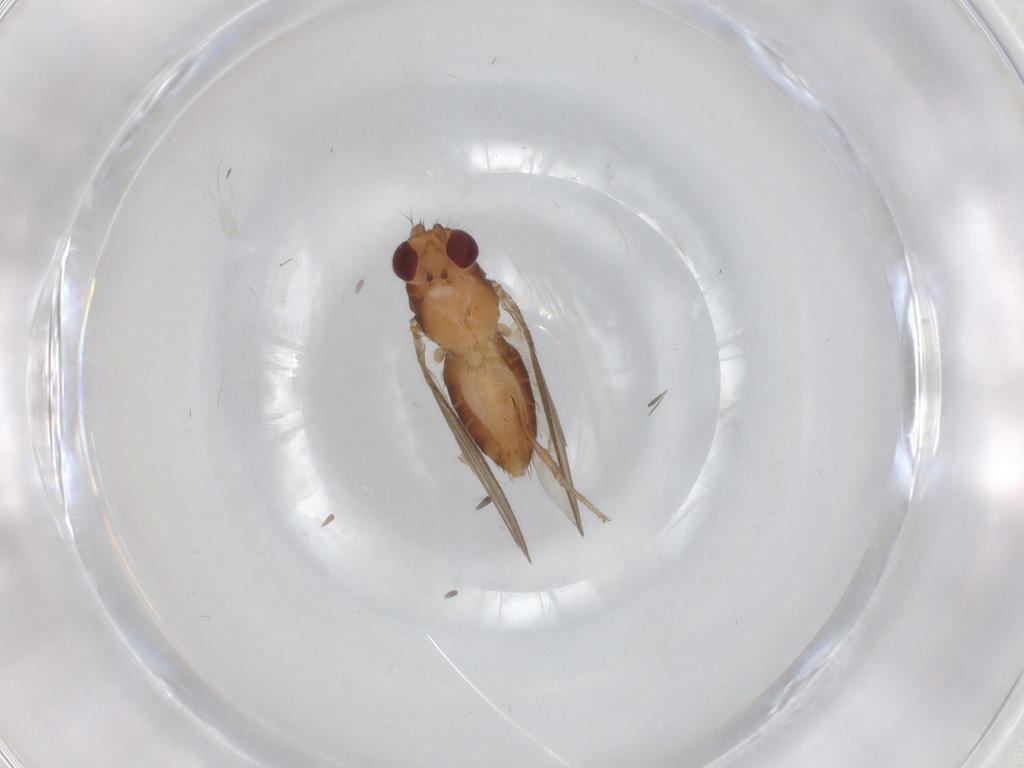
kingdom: Animalia
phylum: Arthropoda
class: Insecta
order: Diptera
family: Drosophilidae
